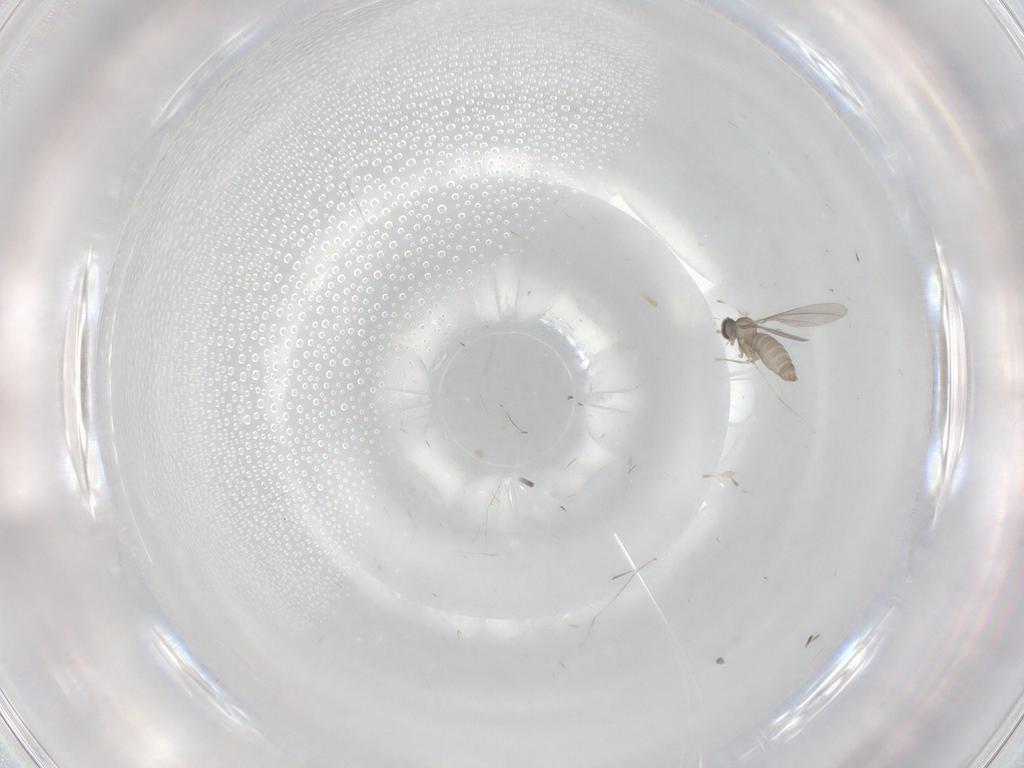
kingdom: Animalia
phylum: Arthropoda
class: Insecta
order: Diptera
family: Cecidomyiidae
